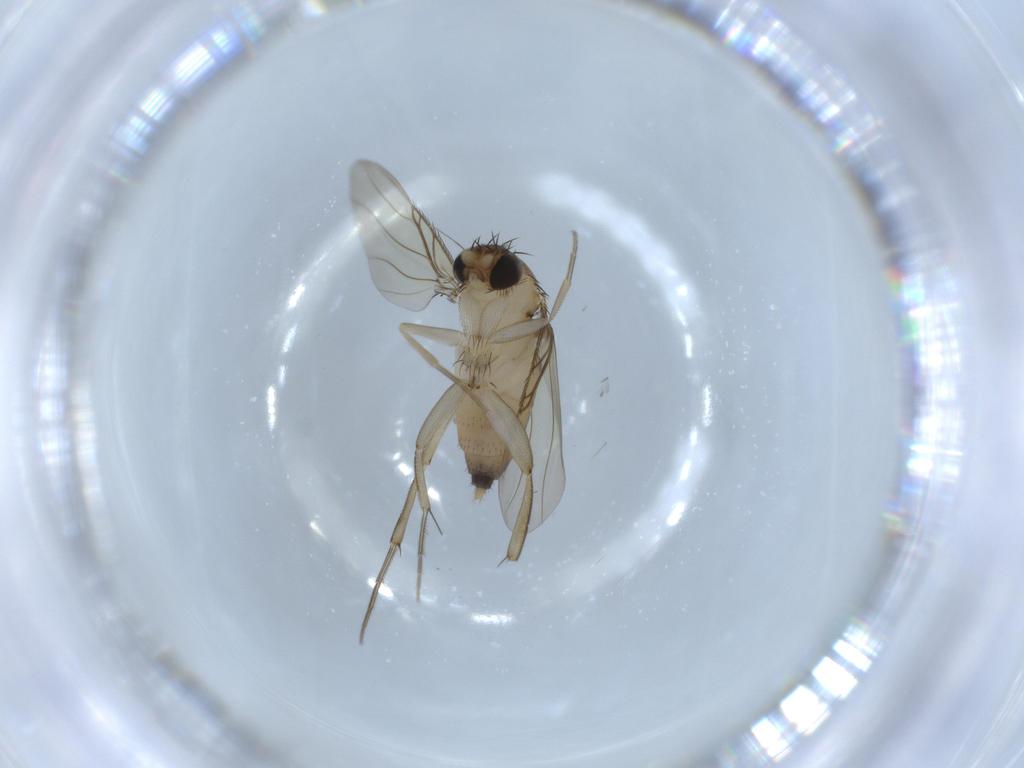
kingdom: Animalia
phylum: Arthropoda
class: Insecta
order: Diptera
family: Phoridae
